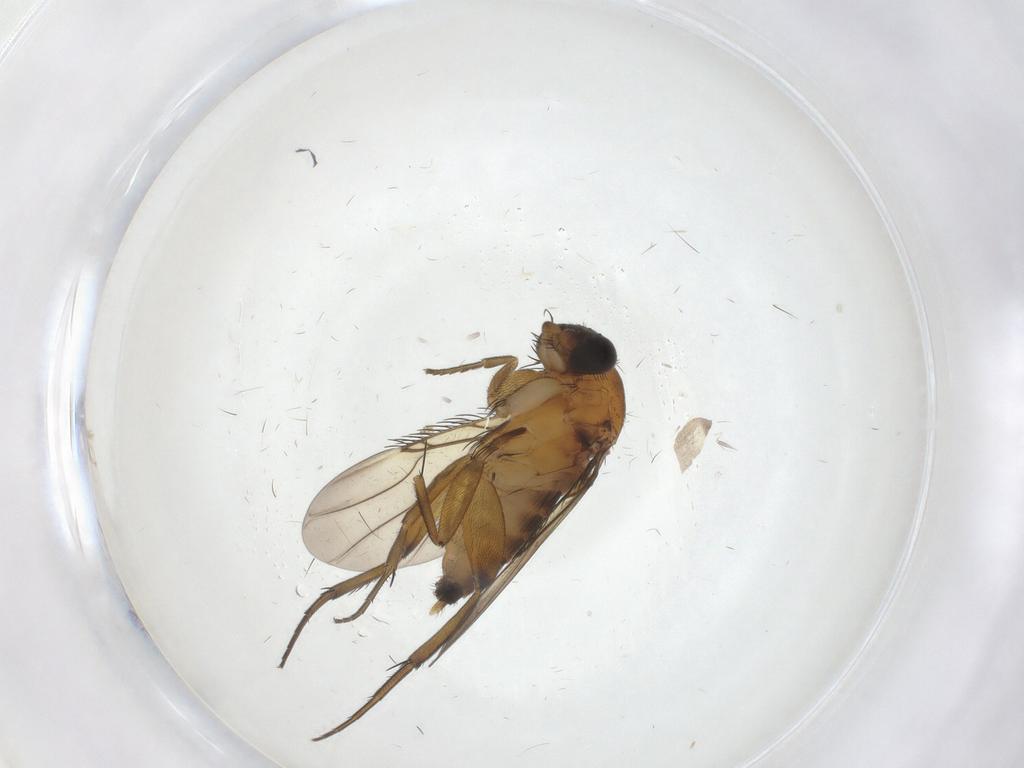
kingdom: Animalia
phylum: Arthropoda
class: Insecta
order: Diptera
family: Phoridae
